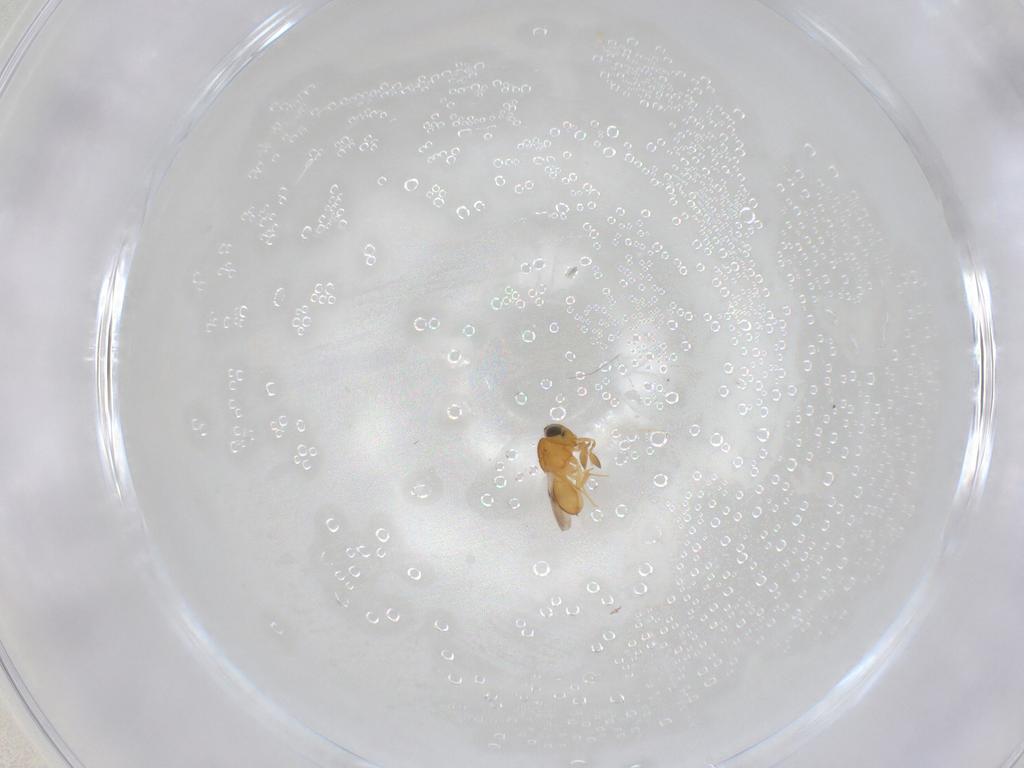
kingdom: Animalia
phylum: Arthropoda
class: Insecta
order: Hymenoptera
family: Scelionidae
